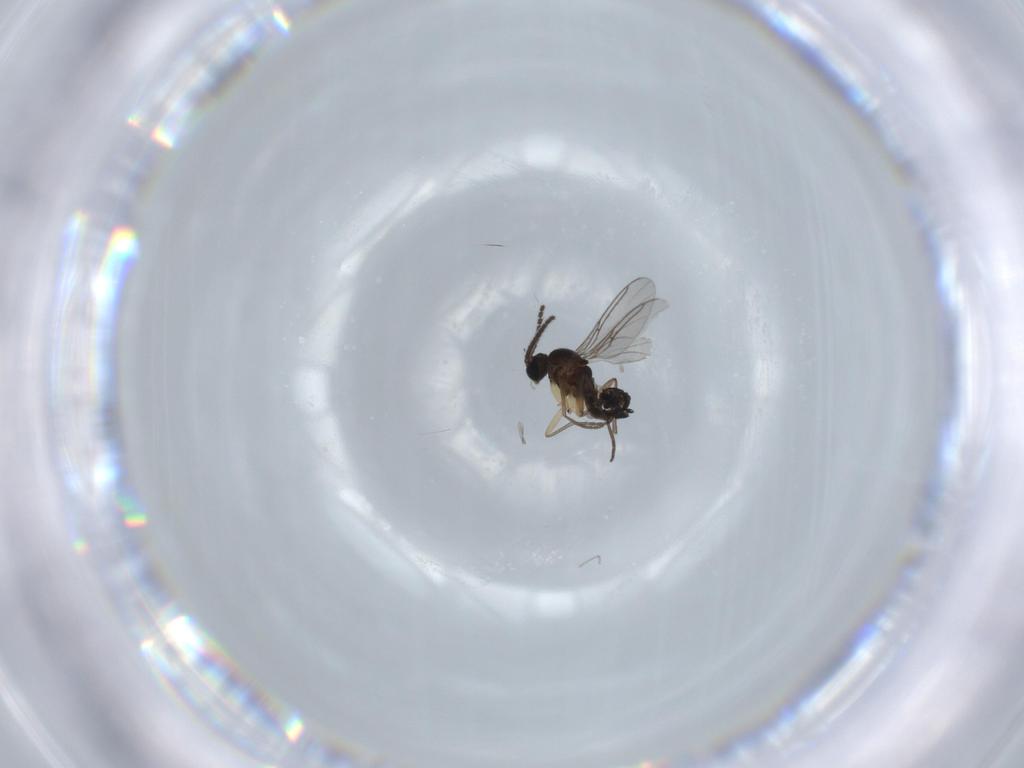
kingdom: Animalia
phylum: Arthropoda
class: Insecta
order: Diptera
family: Phoridae
